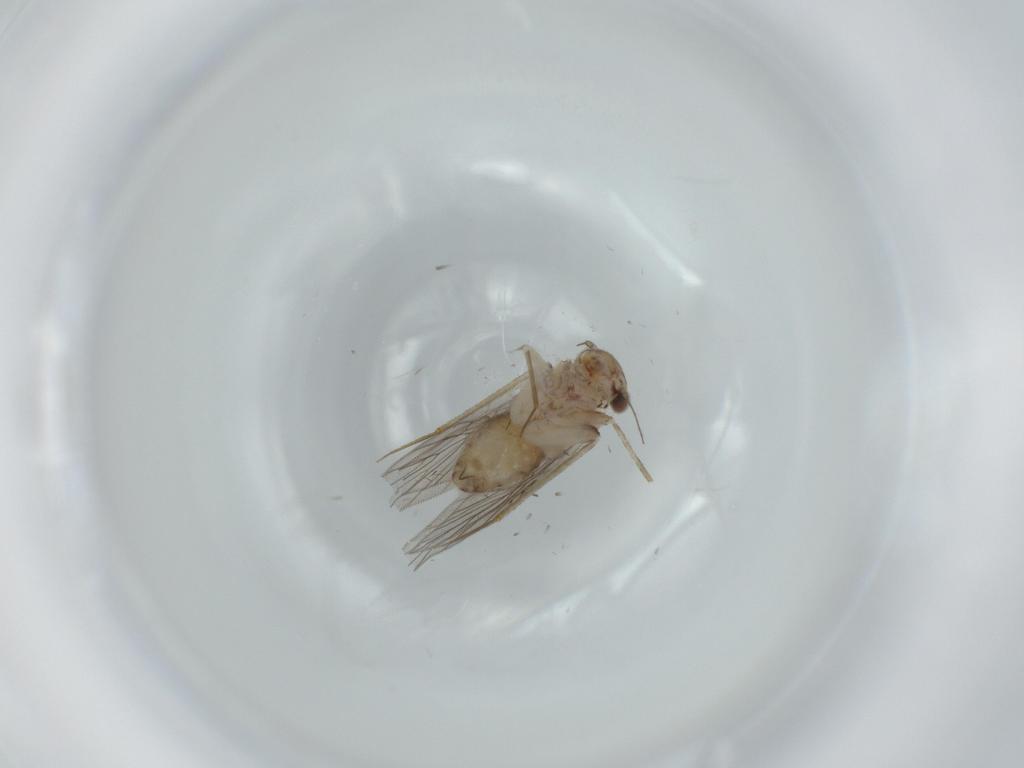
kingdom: Animalia
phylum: Arthropoda
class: Insecta
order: Psocodea
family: Lepidopsocidae
